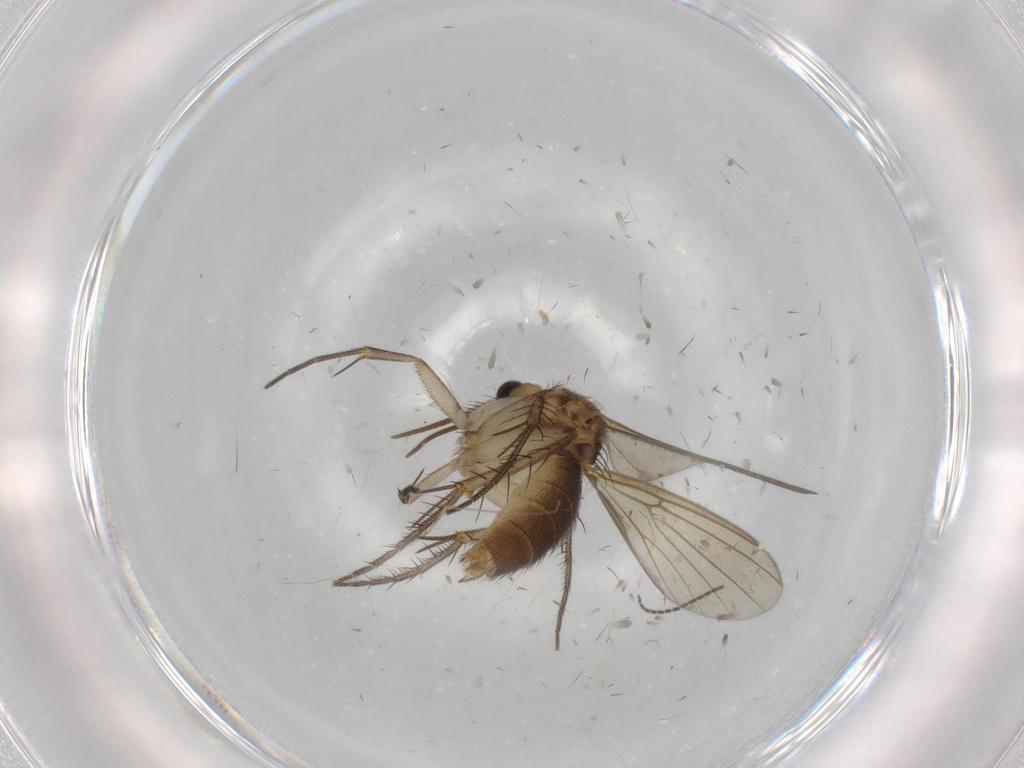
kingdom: Animalia
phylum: Arthropoda
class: Insecta
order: Diptera
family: Mycetophilidae
